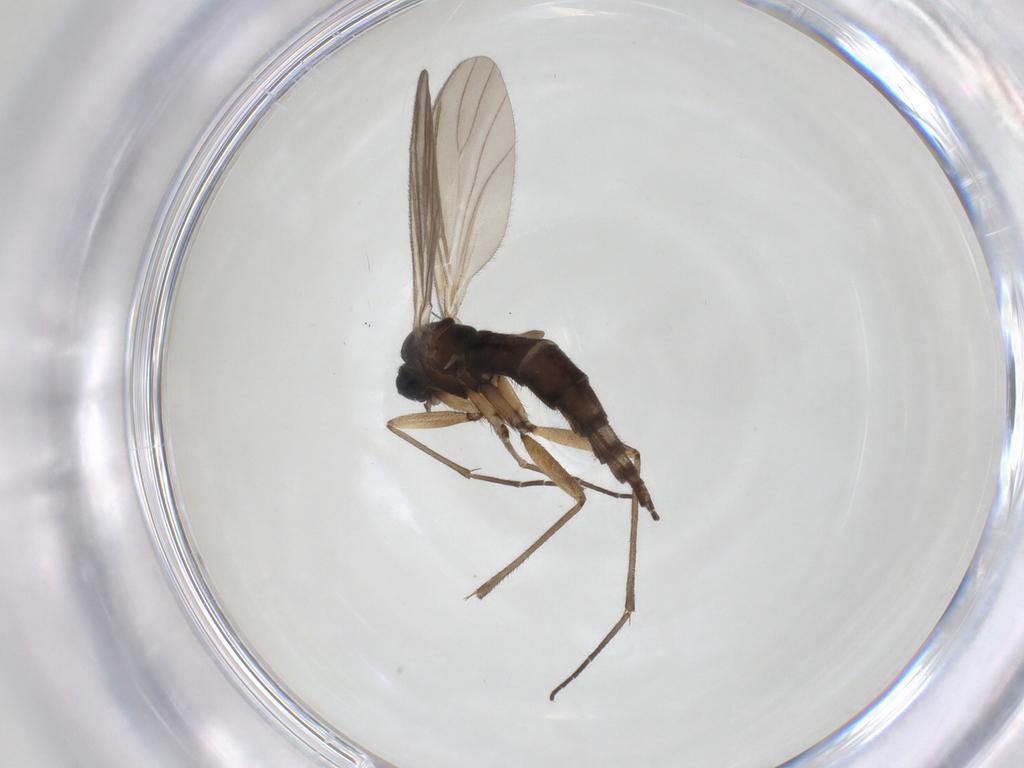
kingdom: Animalia
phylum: Arthropoda
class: Insecta
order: Diptera
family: Sciaridae
